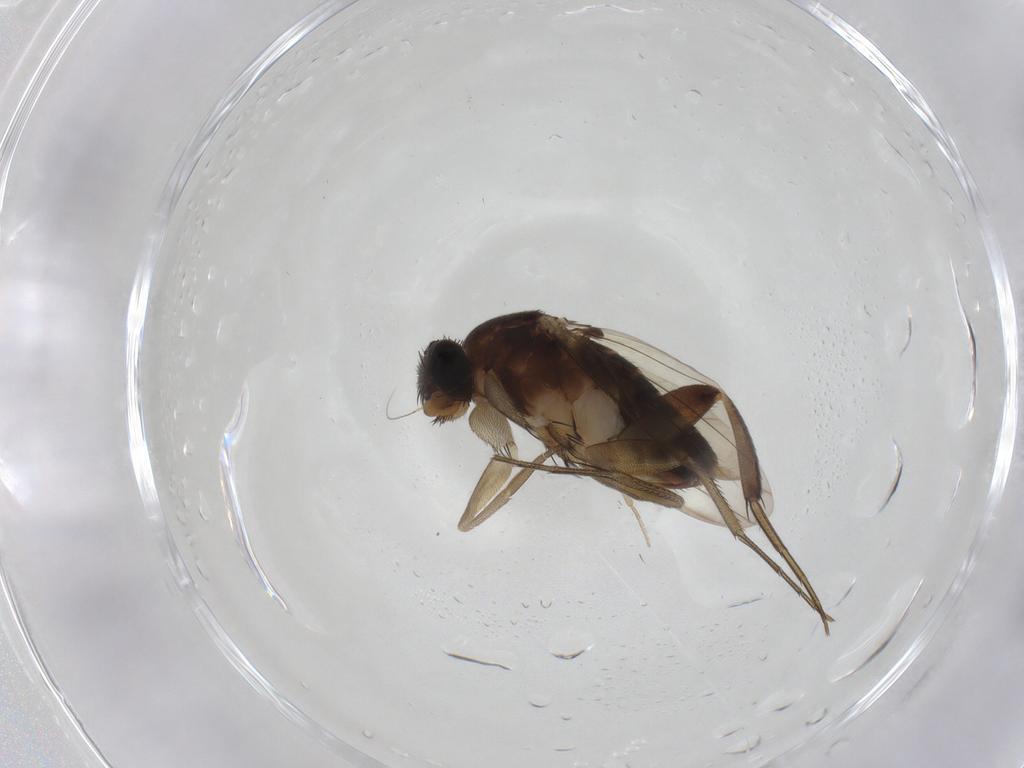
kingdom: Animalia
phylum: Arthropoda
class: Insecta
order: Diptera
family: Phoridae
